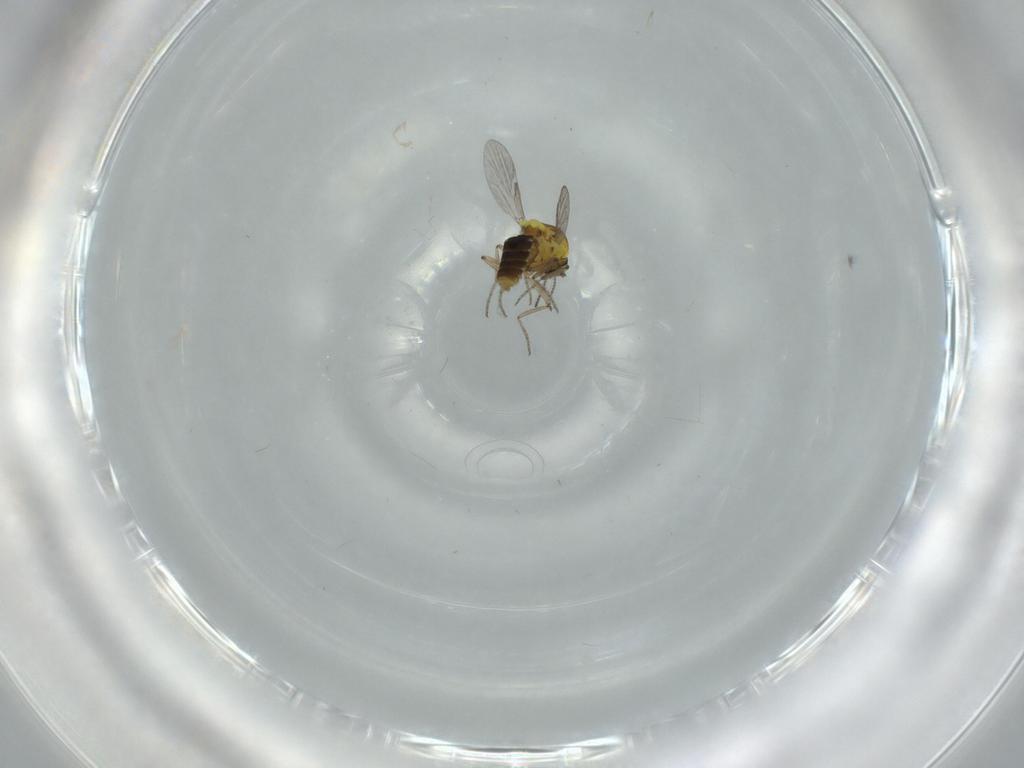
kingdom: Animalia
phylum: Arthropoda
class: Insecta
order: Diptera
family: Ceratopogonidae
